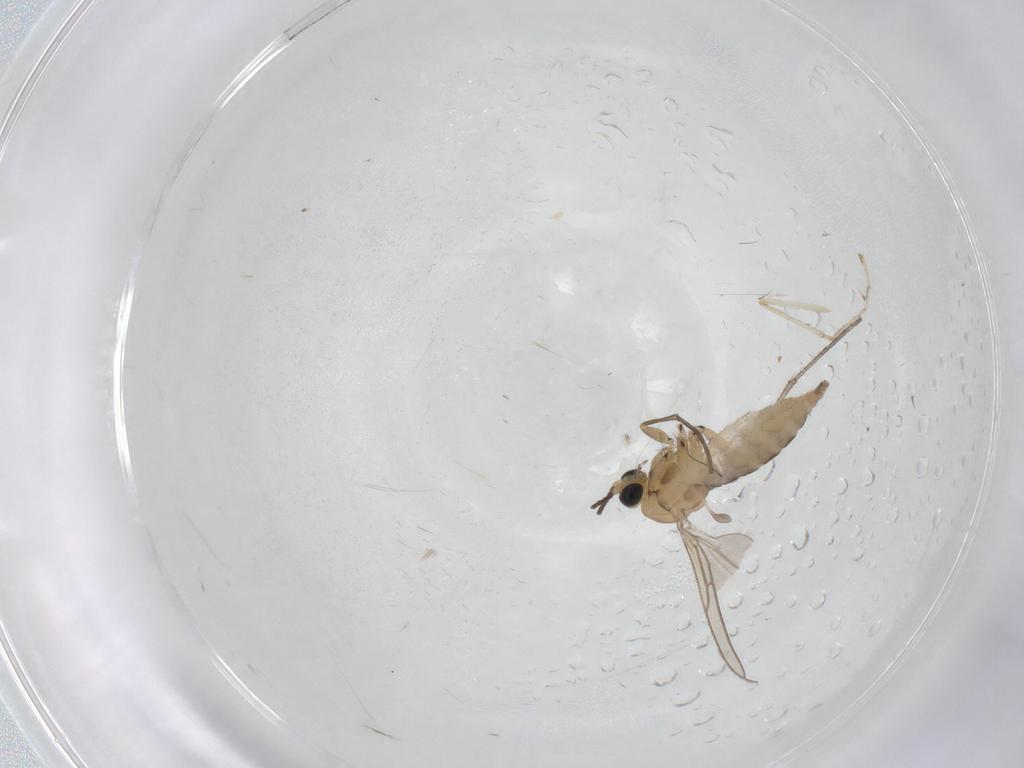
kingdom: Animalia
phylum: Arthropoda
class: Insecta
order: Diptera
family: Sciaridae
